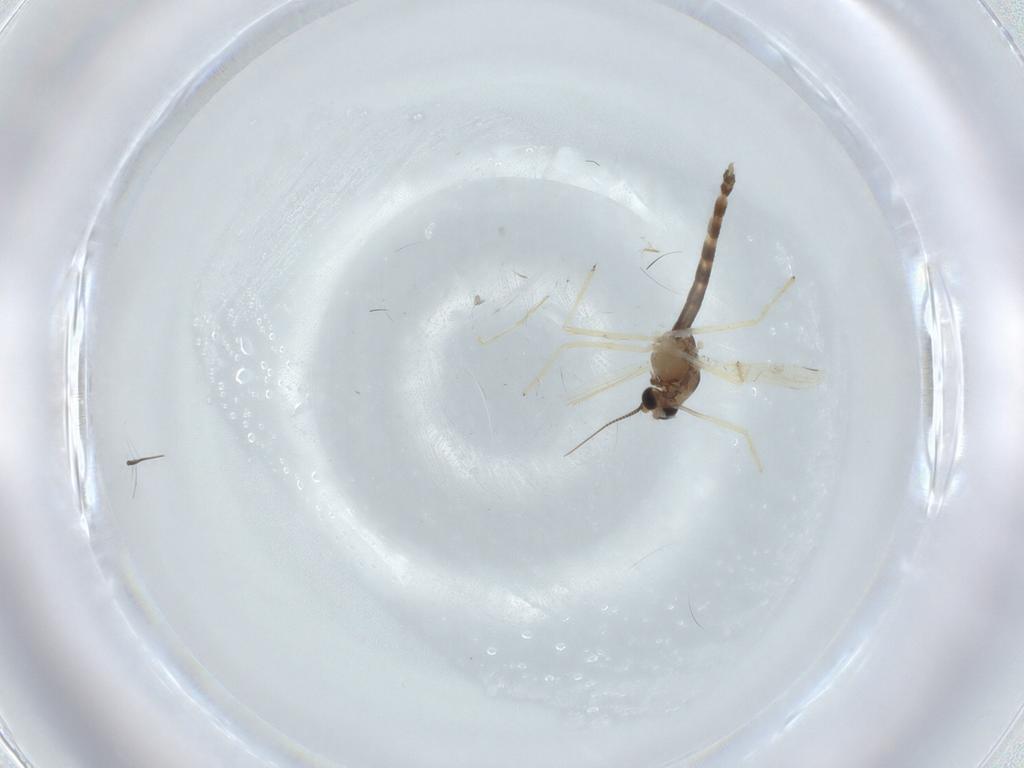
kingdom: Animalia
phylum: Arthropoda
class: Insecta
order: Diptera
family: Chironomidae
